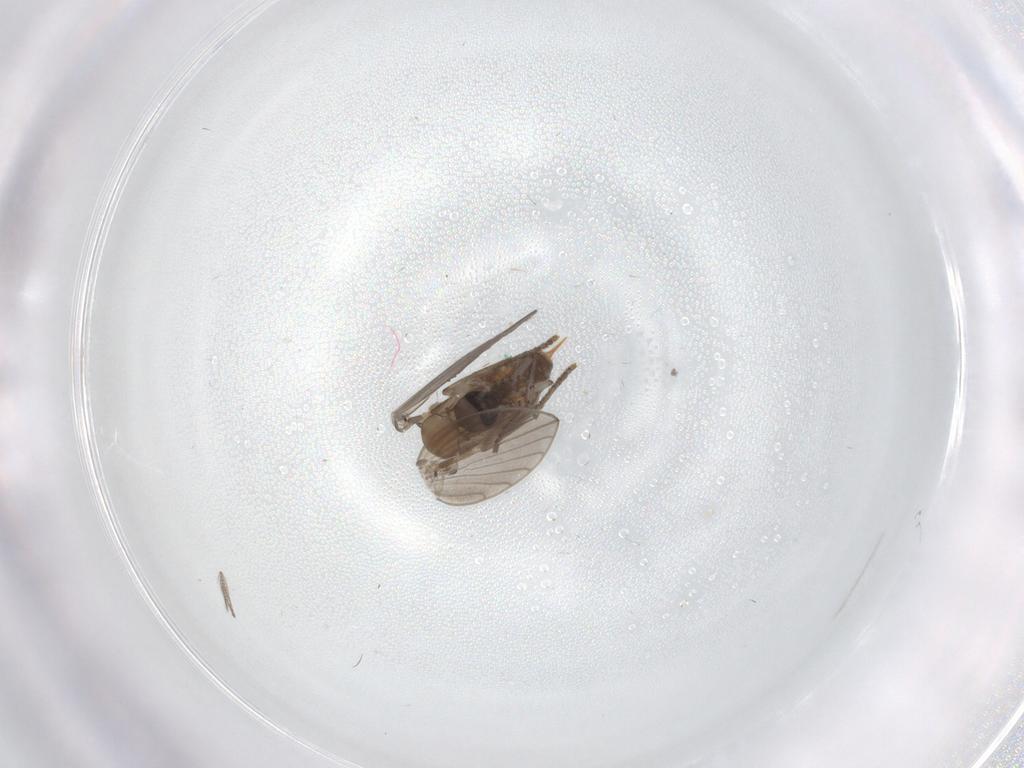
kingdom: Animalia
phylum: Arthropoda
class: Insecta
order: Diptera
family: Psychodidae
